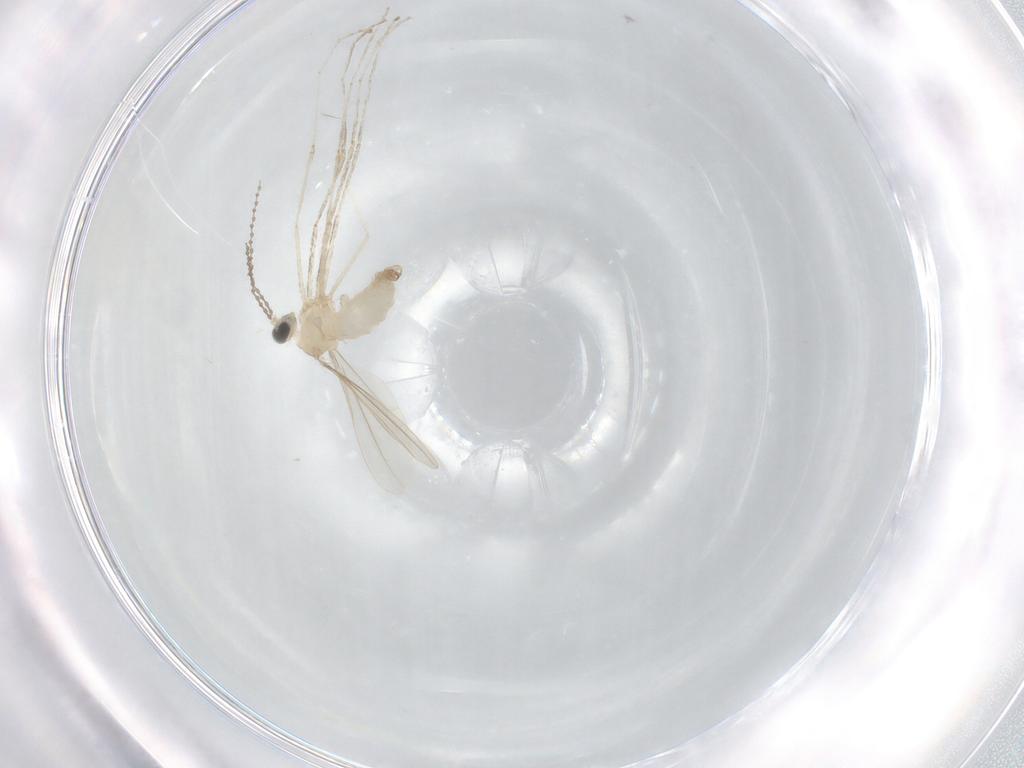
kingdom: Animalia
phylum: Arthropoda
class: Insecta
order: Diptera
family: Cecidomyiidae
